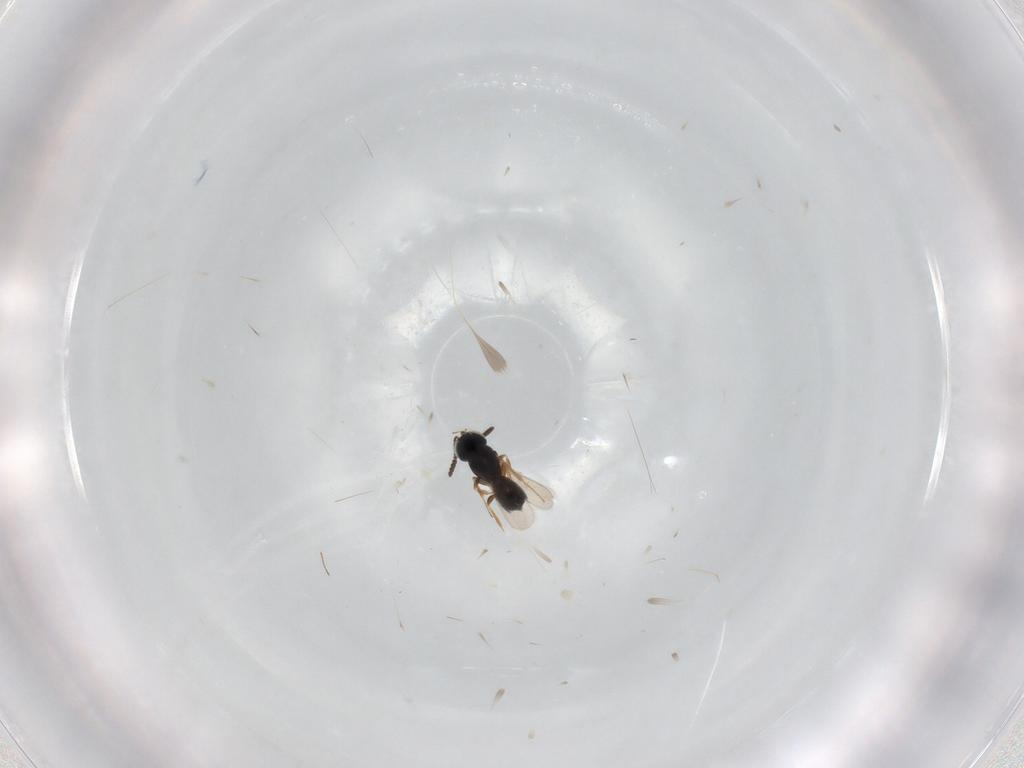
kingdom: Animalia
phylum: Arthropoda
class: Insecta
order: Hymenoptera
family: Scelionidae
